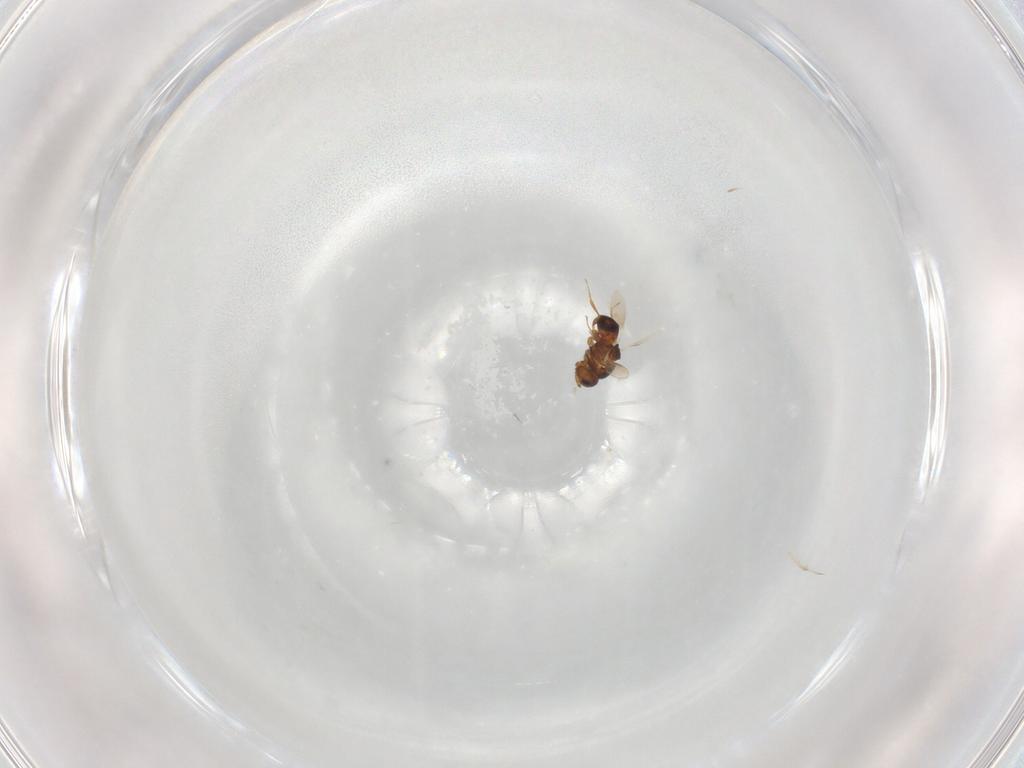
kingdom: Animalia
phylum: Arthropoda
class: Insecta
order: Hymenoptera
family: Scelionidae
